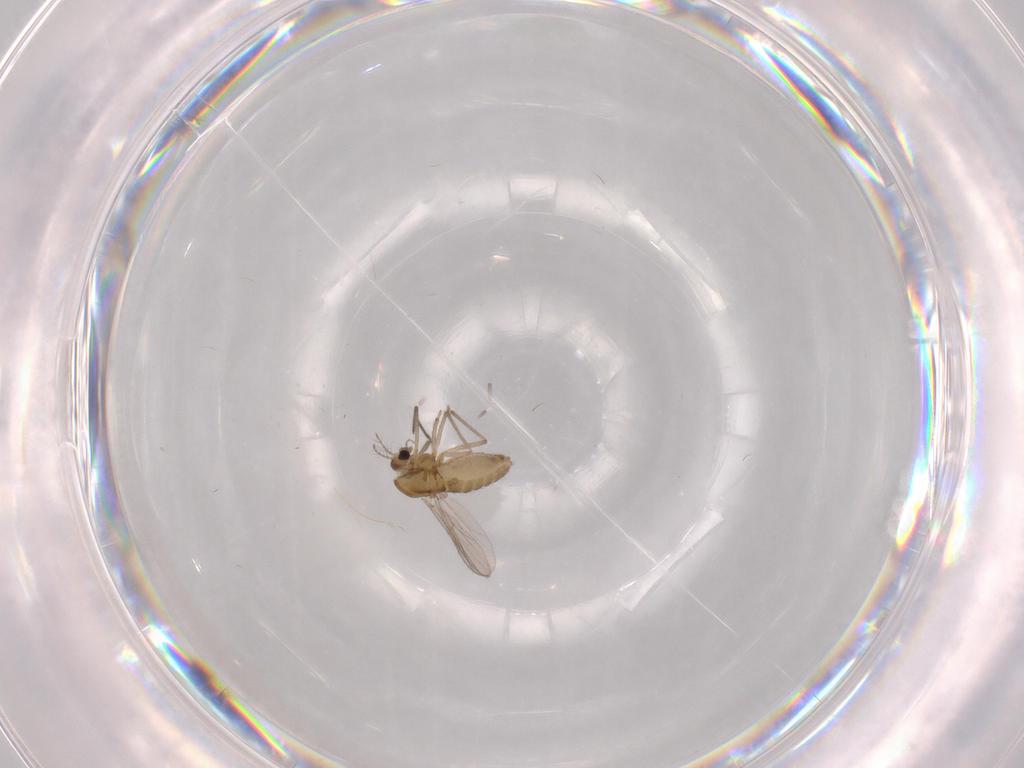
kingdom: Animalia
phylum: Arthropoda
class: Insecta
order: Diptera
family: Chironomidae
